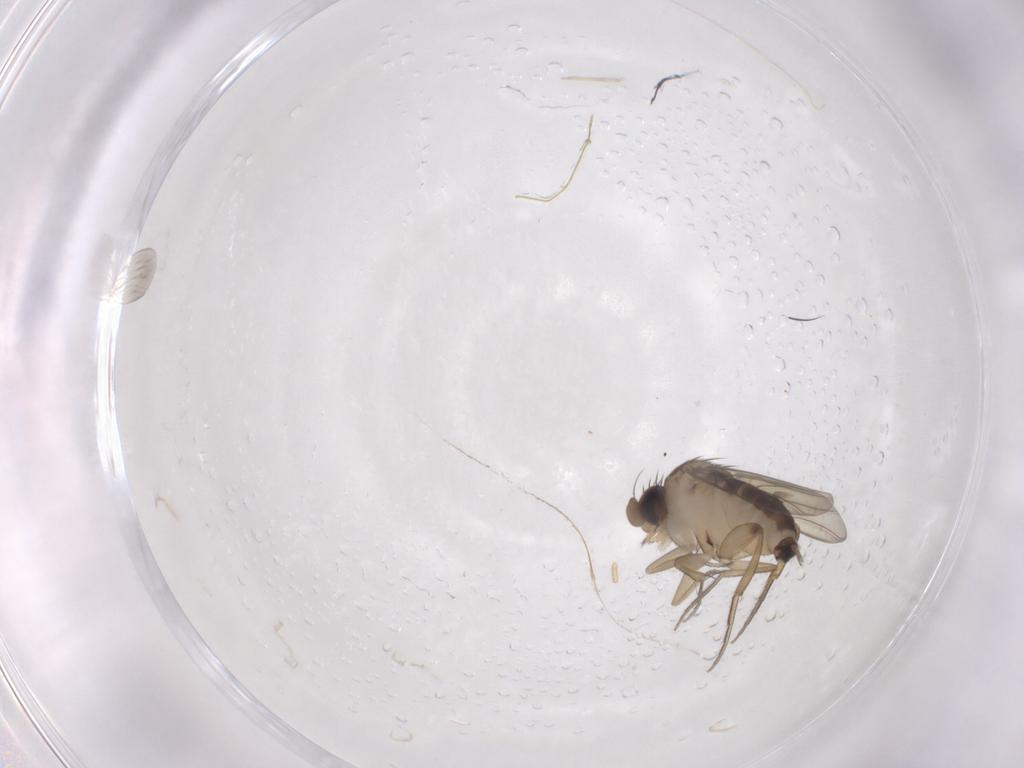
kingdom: Animalia
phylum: Arthropoda
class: Insecta
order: Diptera
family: Phoridae
